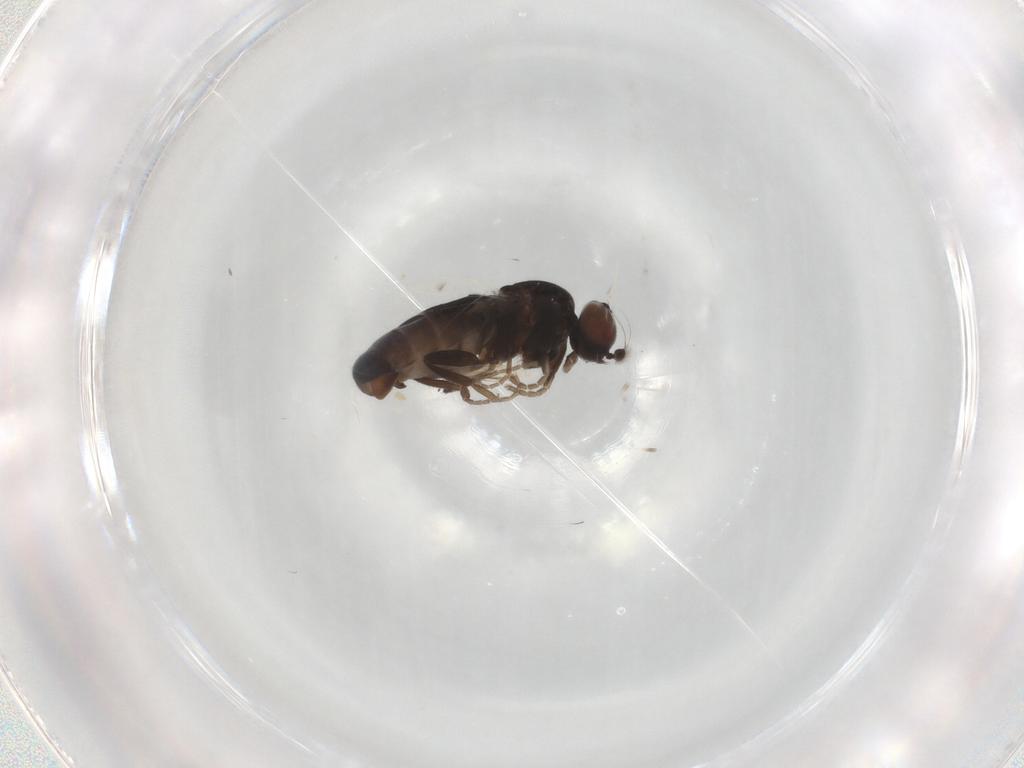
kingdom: Animalia
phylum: Arthropoda
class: Insecta
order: Diptera
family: Phoridae
